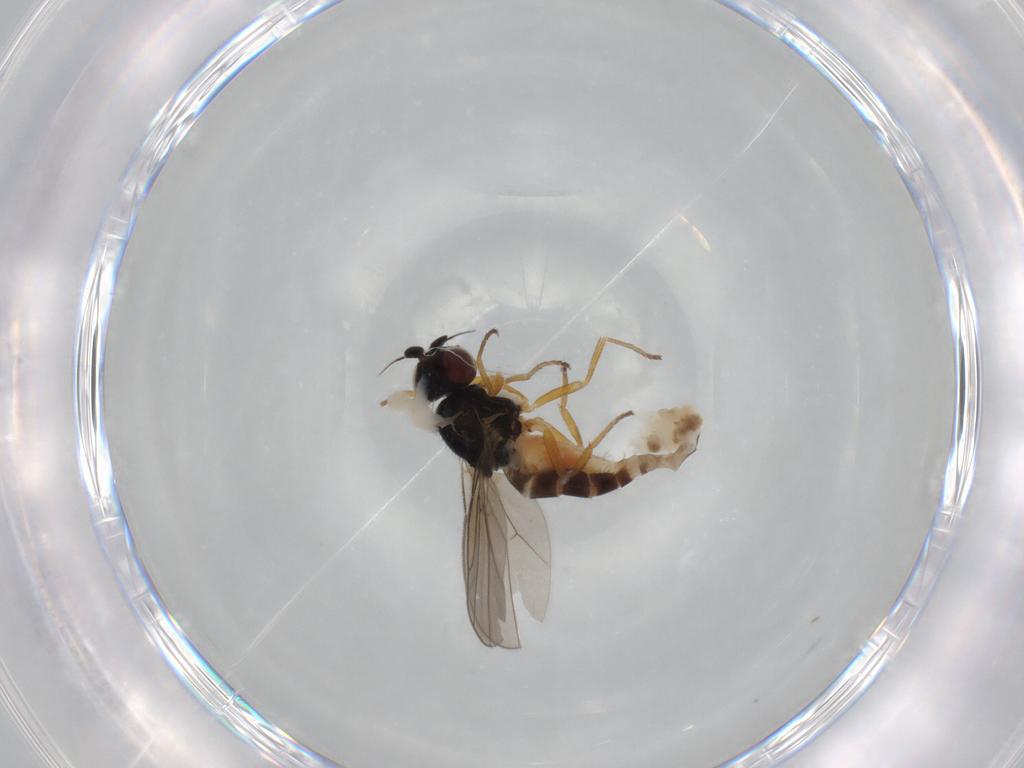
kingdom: Animalia
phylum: Arthropoda
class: Insecta
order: Diptera
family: Chloropidae
